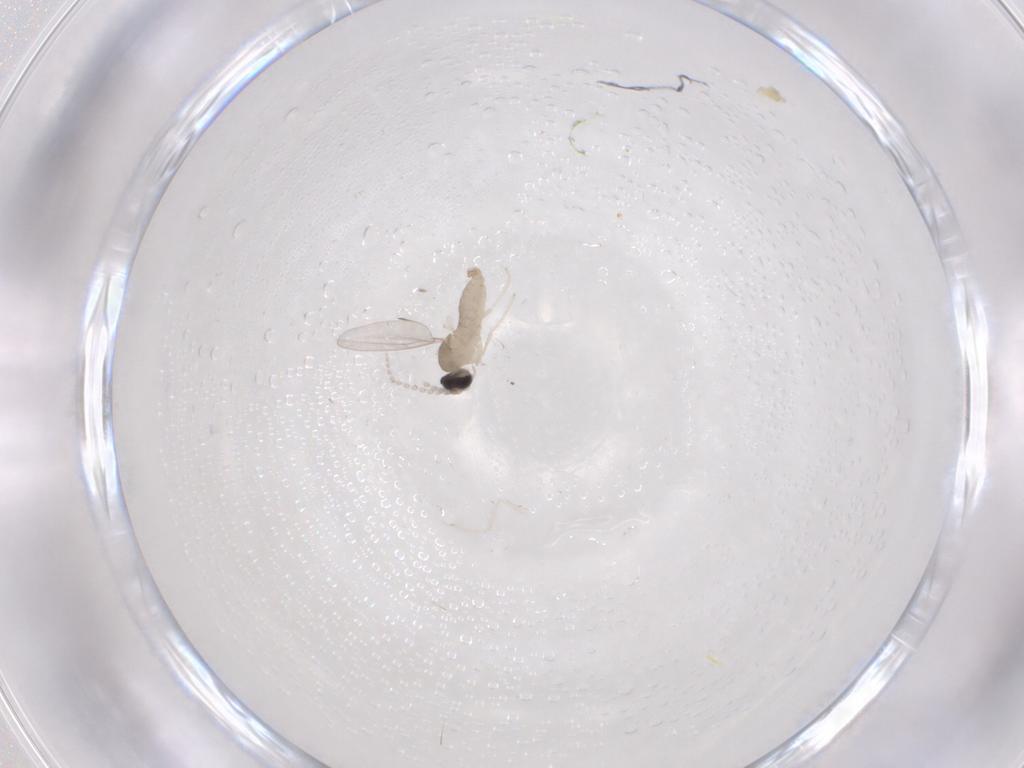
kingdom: Animalia
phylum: Arthropoda
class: Insecta
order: Diptera
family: Cecidomyiidae
